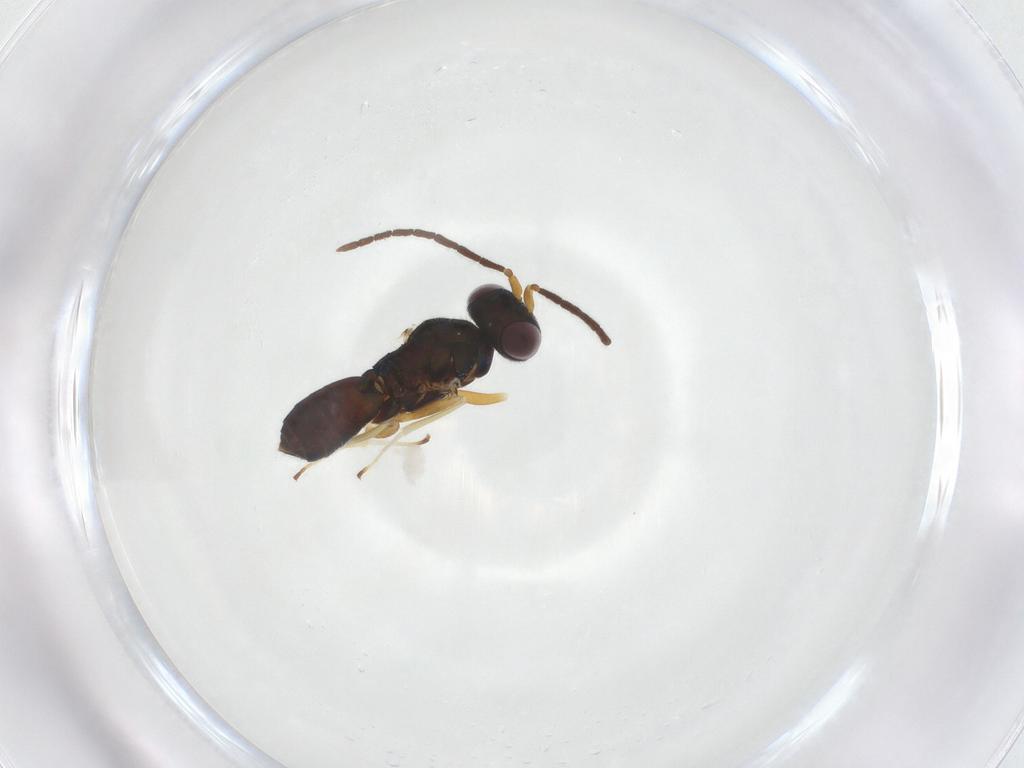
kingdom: Animalia
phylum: Arthropoda
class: Insecta
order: Hymenoptera
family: Eupelmidae
